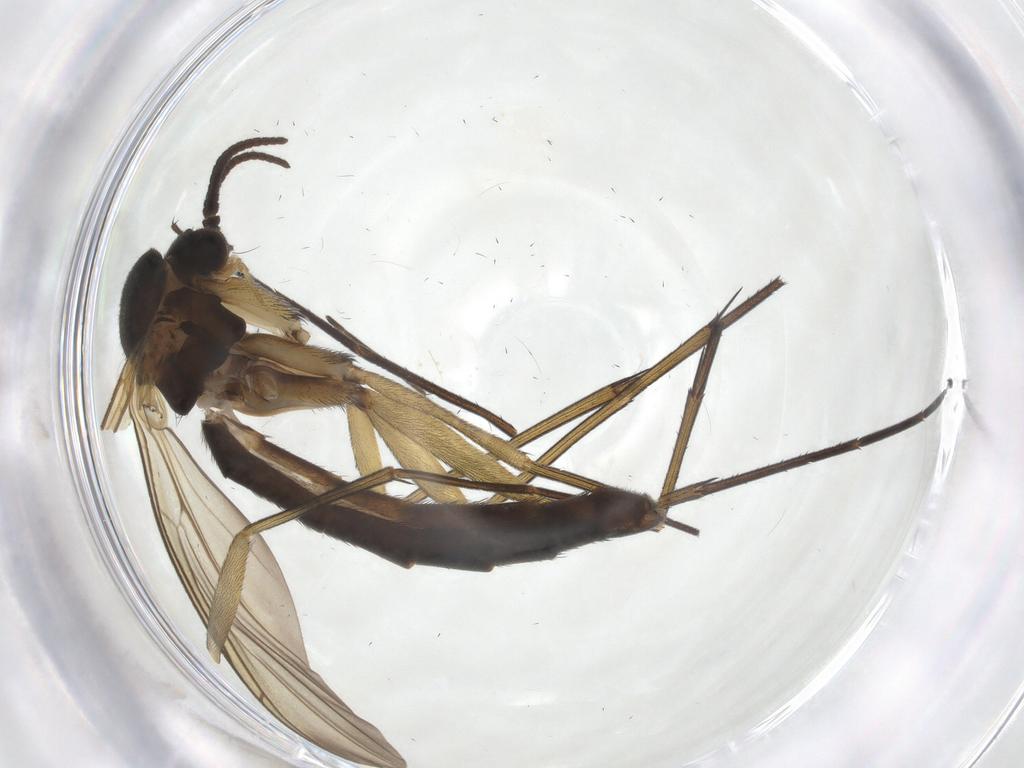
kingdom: Animalia
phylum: Arthropoda
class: Insecta
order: Diptera
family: Keroplatidae
